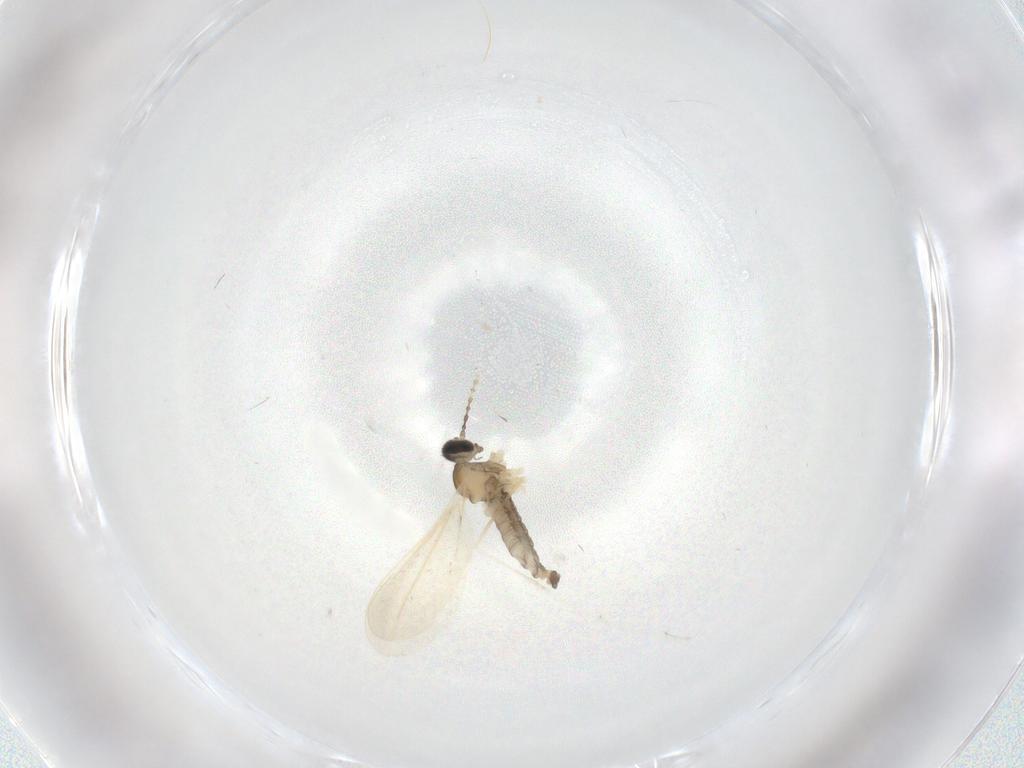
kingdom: Animalia
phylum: Arthropoda
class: Insecta
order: Diptera
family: Cecidomyiidae
